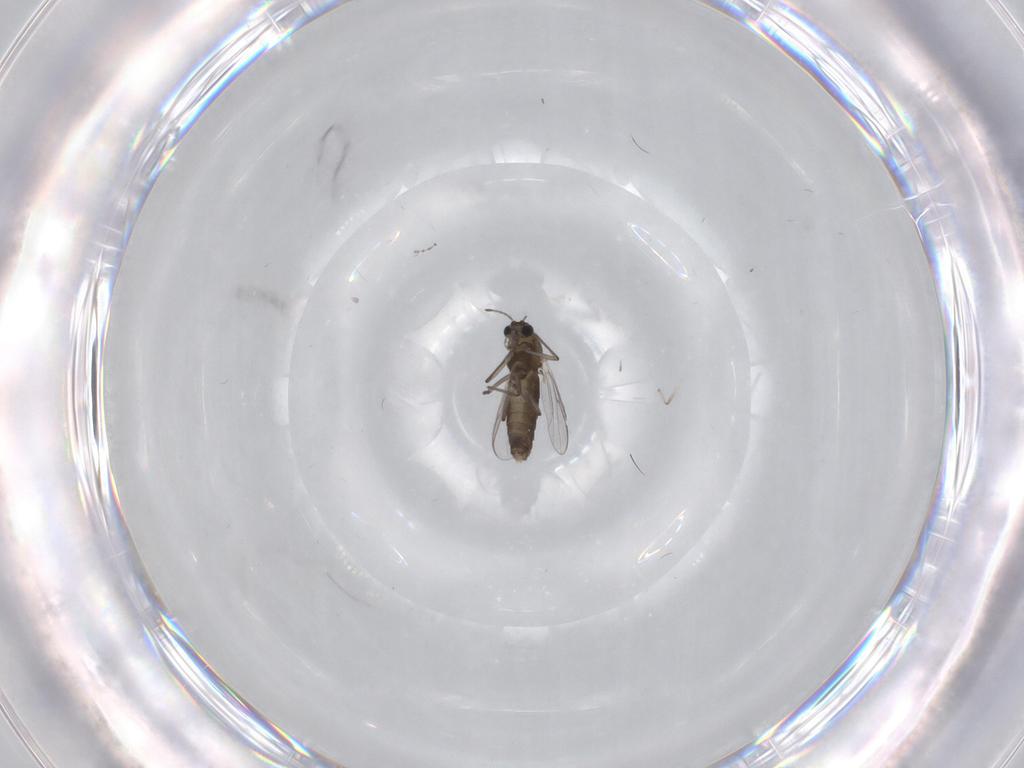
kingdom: Animalia
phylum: Arthropoda
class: Insecta
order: Diptera
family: Chironomidae
